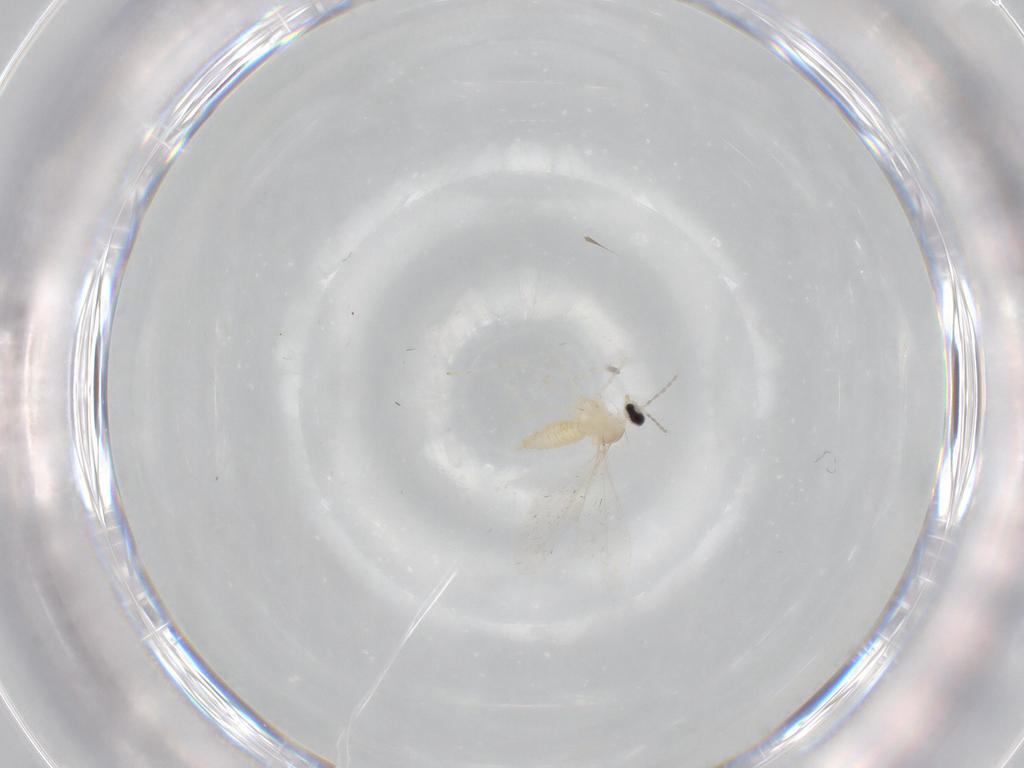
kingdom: Animalia
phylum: Arthropoda
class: Insecta
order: Diptera
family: Cecidomyiidae
